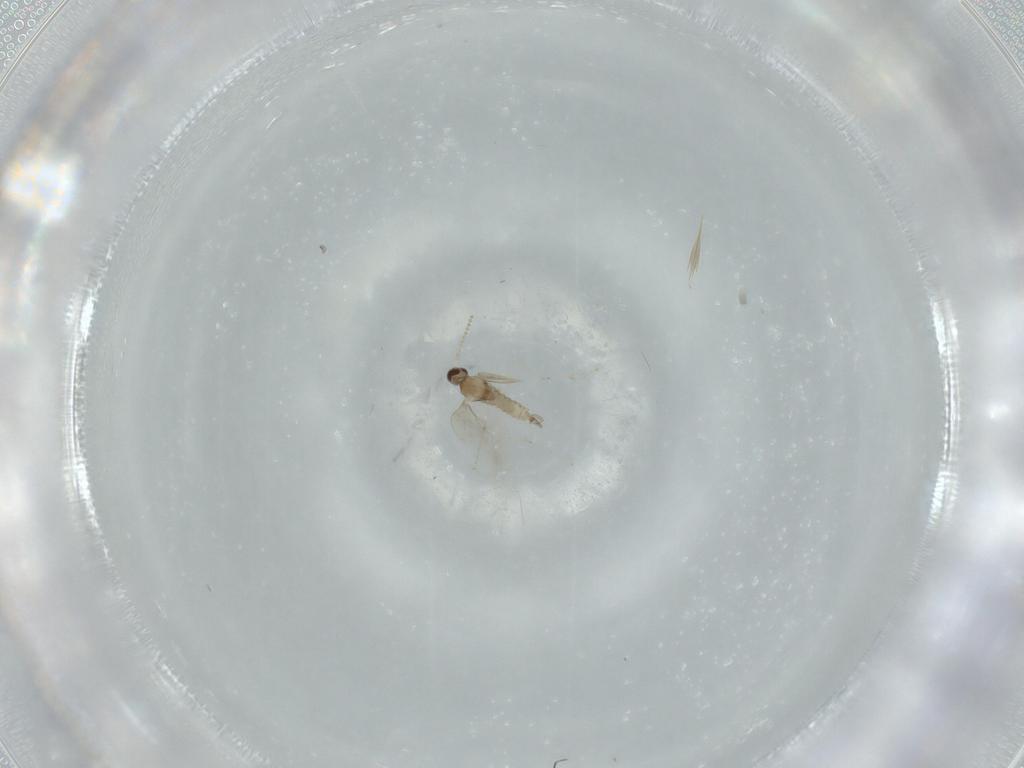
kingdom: Animalia
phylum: Arthropoda
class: Insecta
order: Diptera
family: Cecidomyiidae
